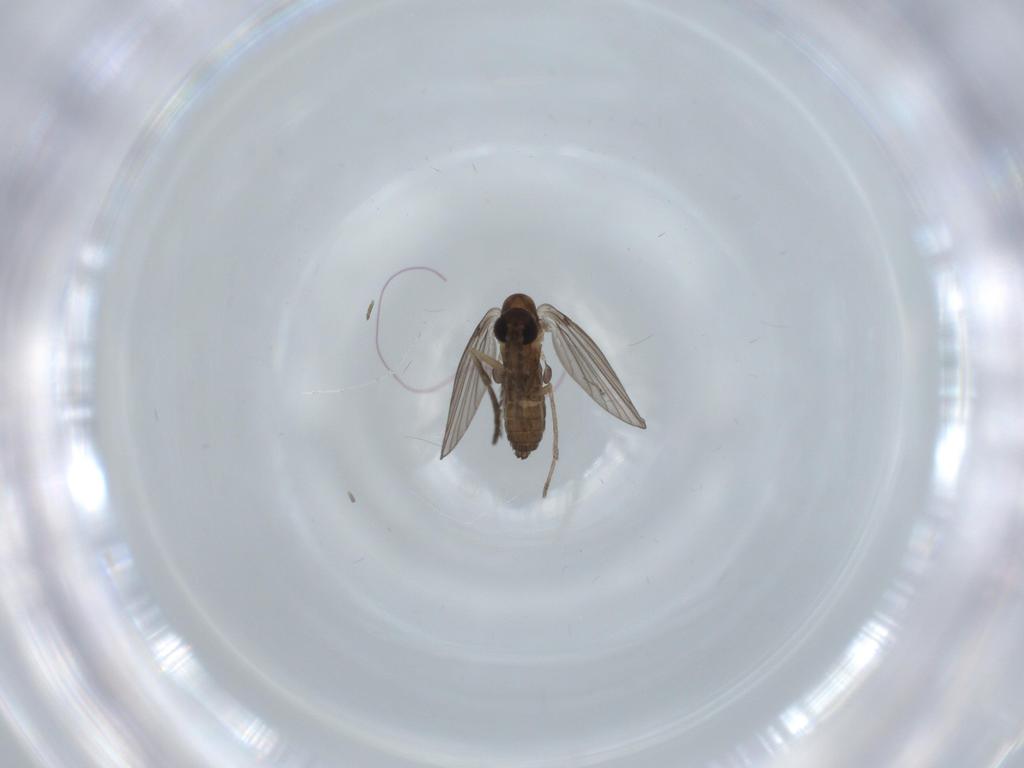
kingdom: Animalia
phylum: Arthropoda
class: Insecta
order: Diptera
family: Psychodidae
